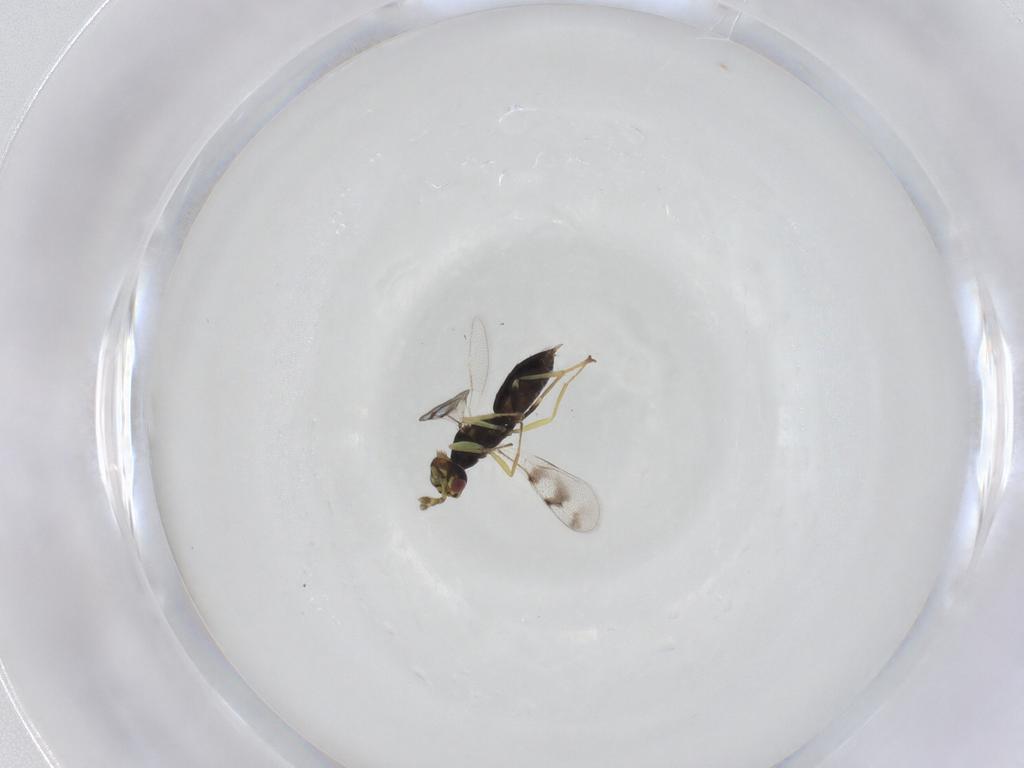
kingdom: Animalia
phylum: Arthropoda
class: Insecta
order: Hymenoptera
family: Eulophidae
